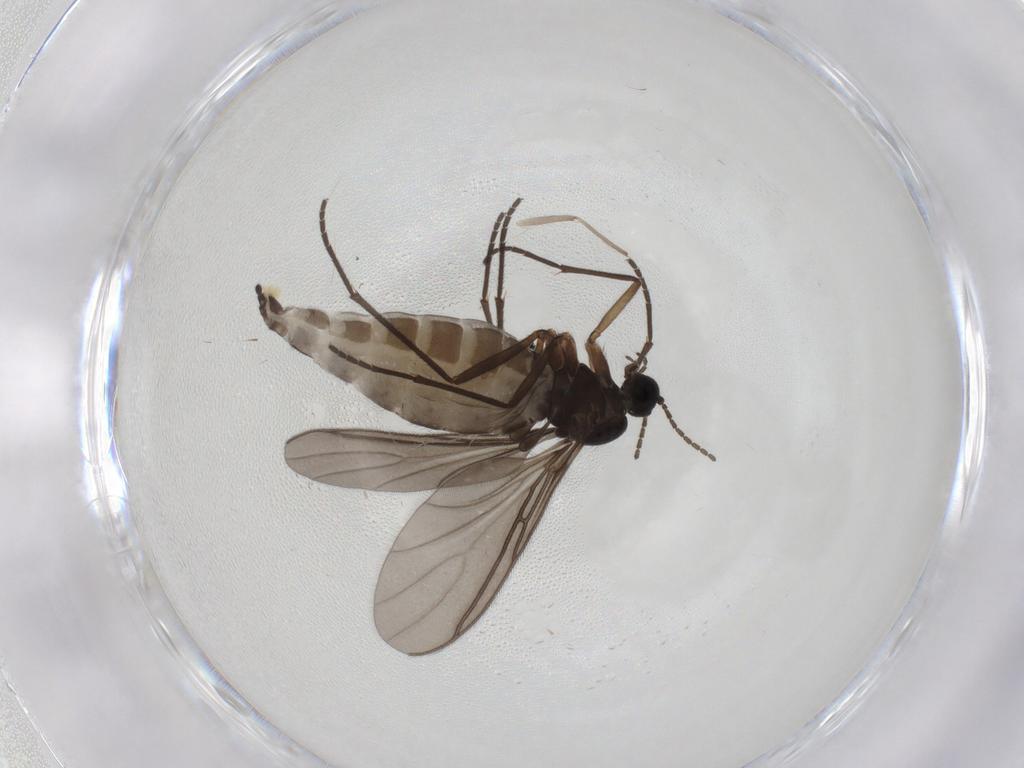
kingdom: Animalia
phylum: Arthropoda
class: Insecta
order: Diptera
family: Sciaridae
